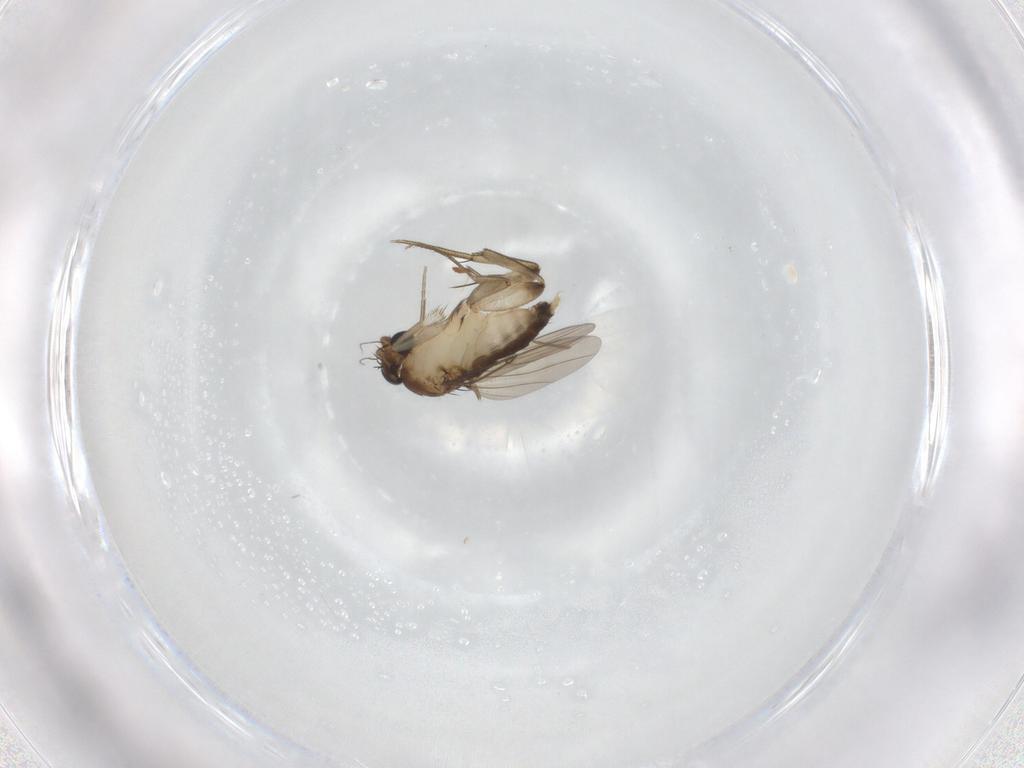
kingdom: Animalia
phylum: Arthropoda
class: Insecta
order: Diptera
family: Phoridae
